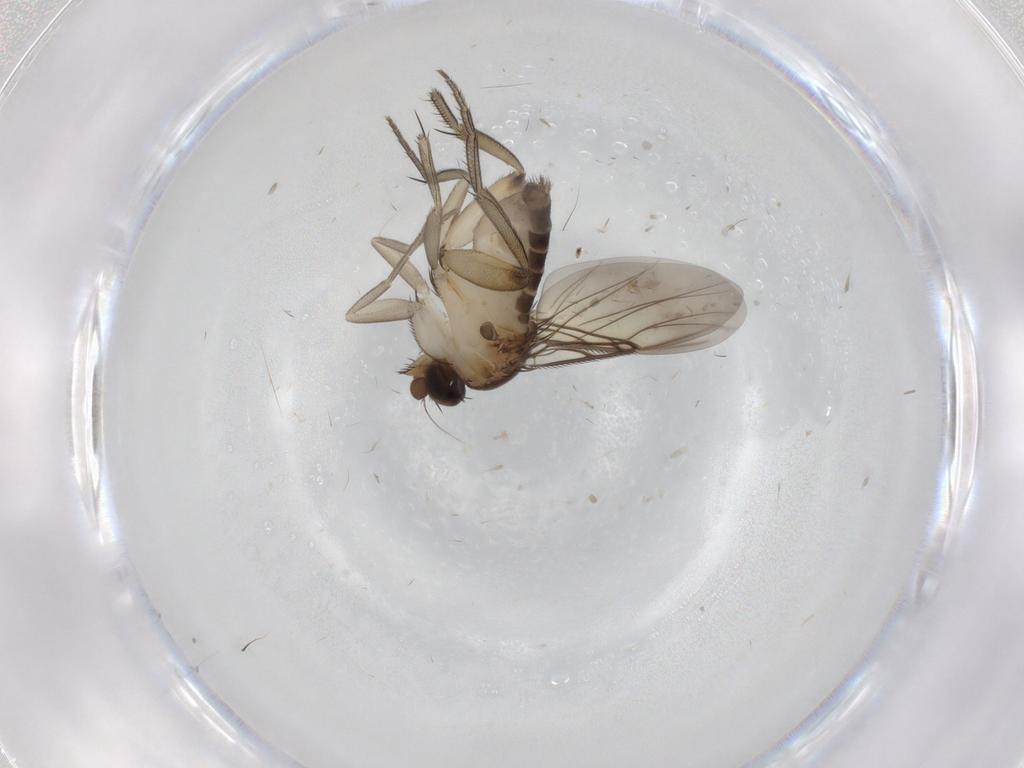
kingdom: Animalia
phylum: Arthropoda
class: Insecta
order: Diptera
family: Phoridae
